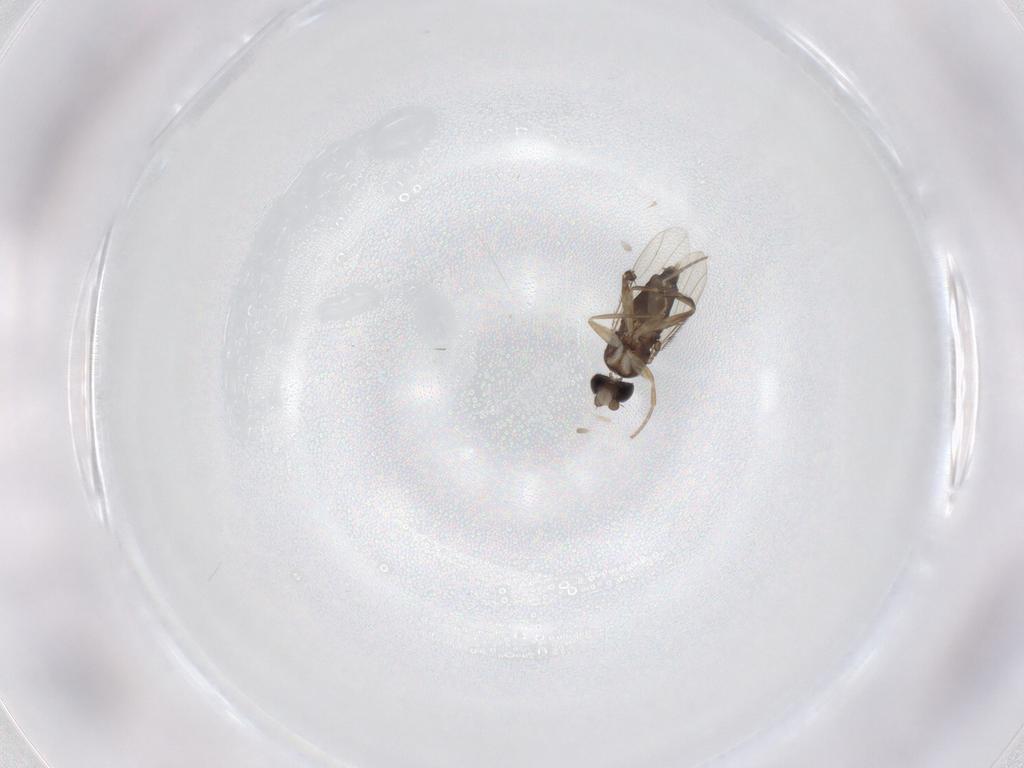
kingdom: Animalia
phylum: Arthropoda
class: Insecta
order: Diptera
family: Phoridae
